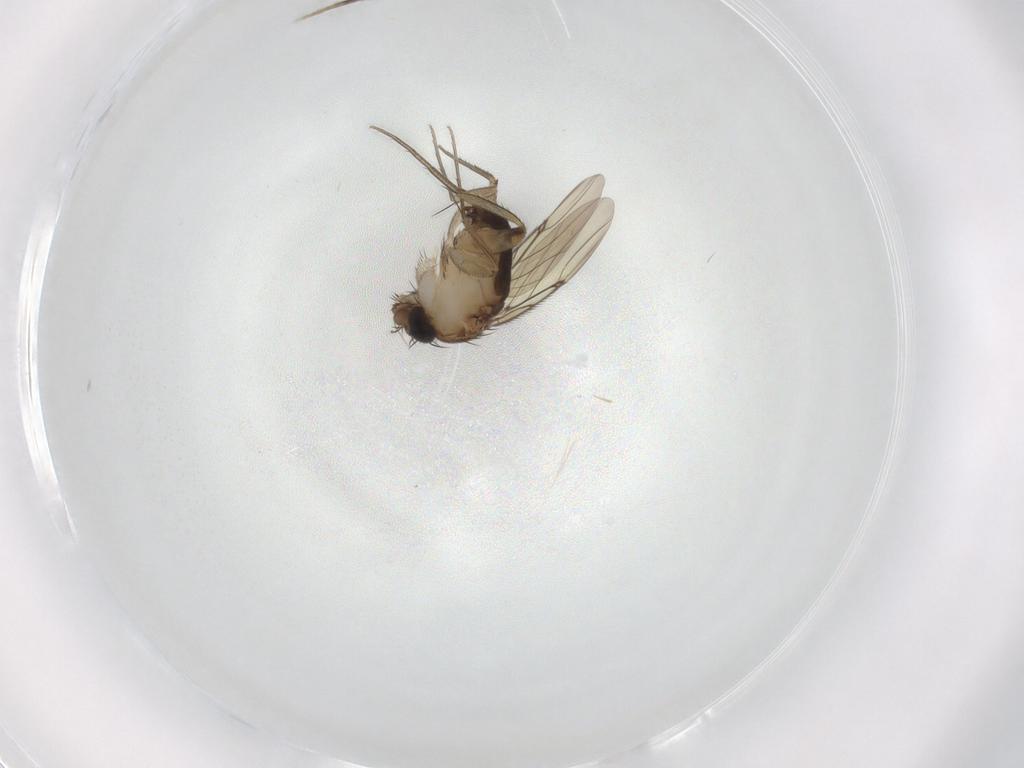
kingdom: Animalia
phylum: Arthropoda
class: Insecta
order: Diptera
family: Phoridae
